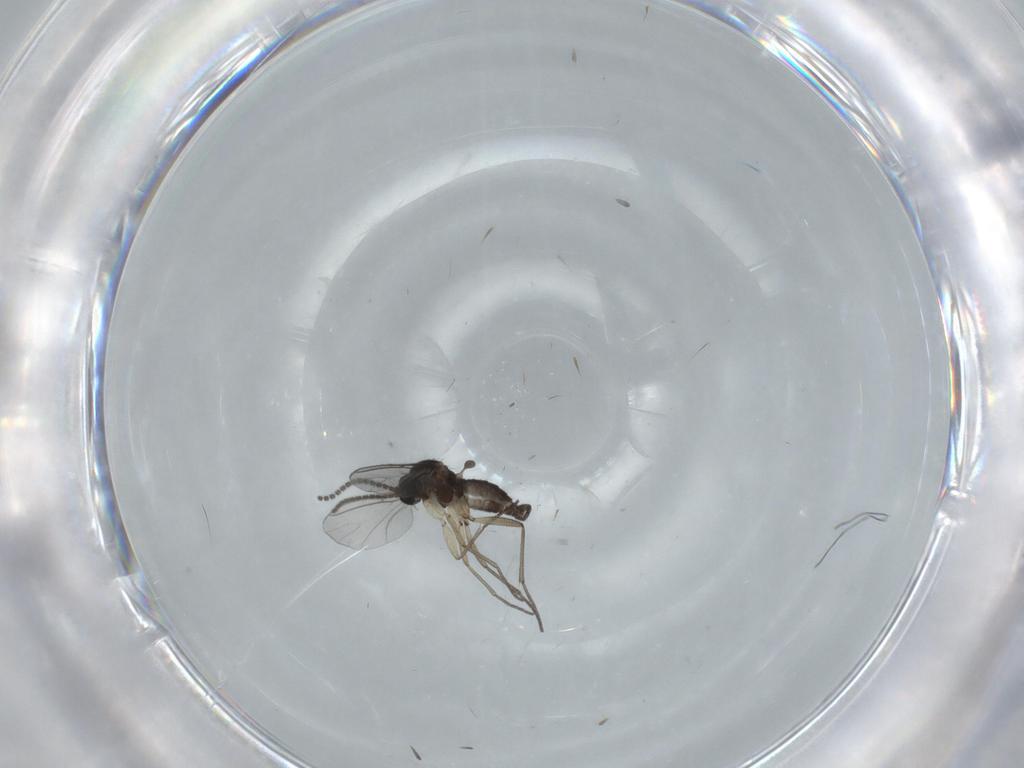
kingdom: Animalia
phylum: Arthropoda
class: Insecta
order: Diptera
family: Sciaridae
